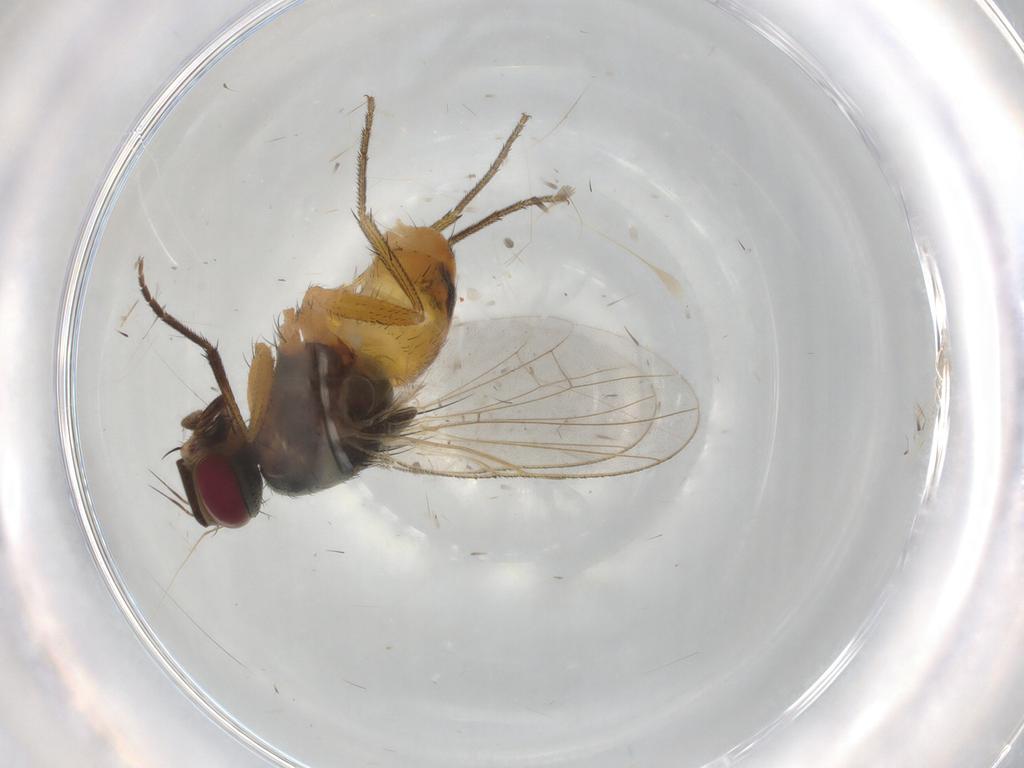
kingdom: Animalia
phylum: Arthropoda
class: Insecta
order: Diptera
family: Muscidae
